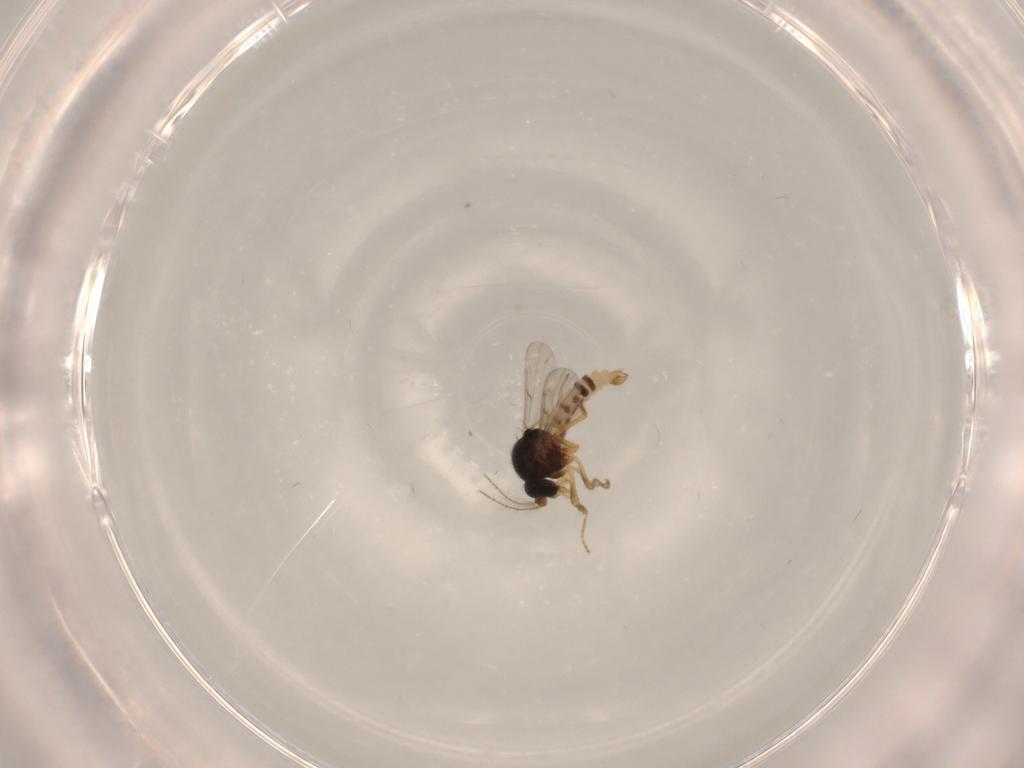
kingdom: Animalia
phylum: Arthropoda
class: Insecta
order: Diptera
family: Ceratopogonidae
